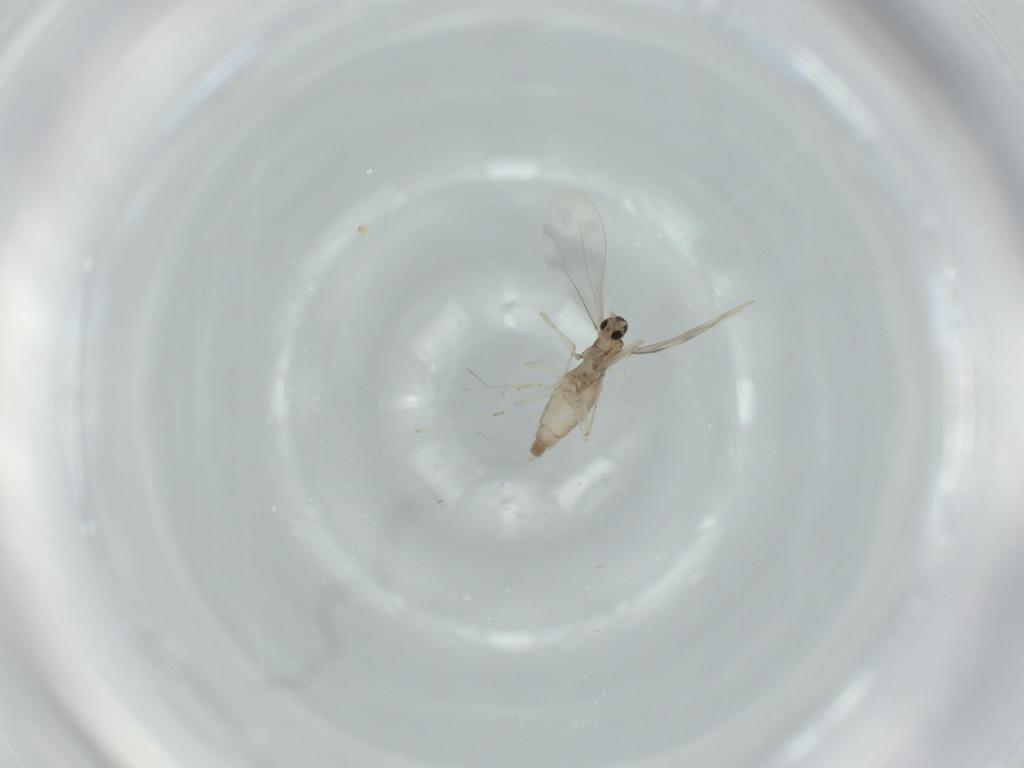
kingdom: Animalia
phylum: Arthropoda
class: Insecta
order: Diptera
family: Cecidomyiidae
